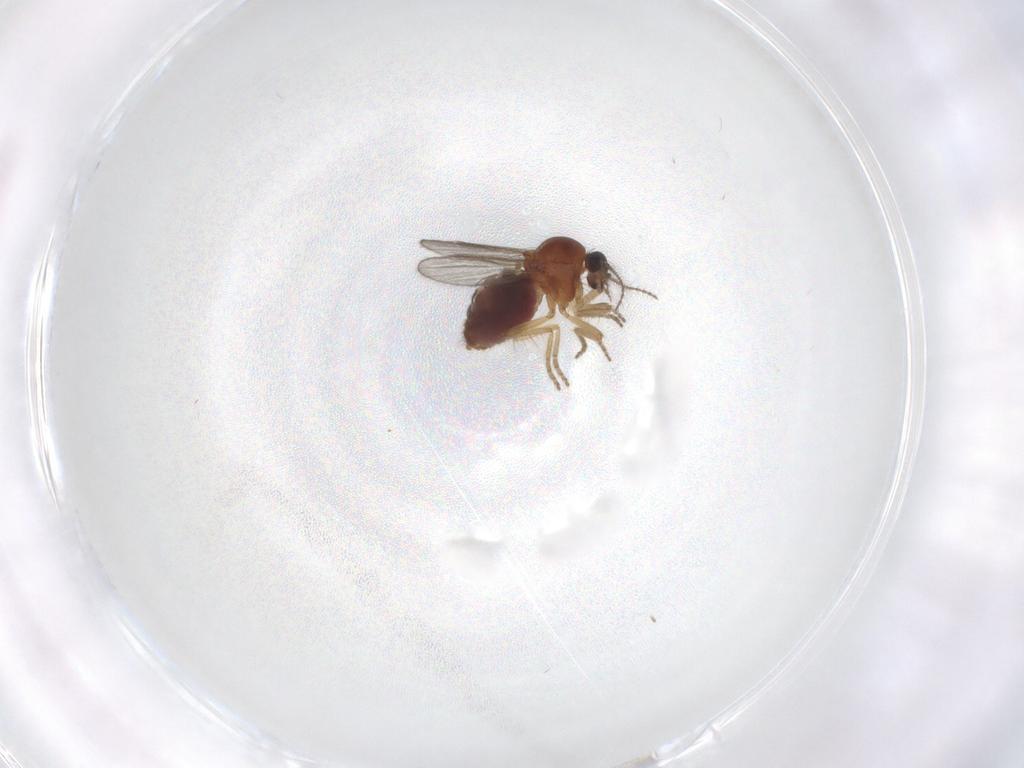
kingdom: Animalia
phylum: Arthropoda
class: Insecta
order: Diptera
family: Ceratopogonidae
